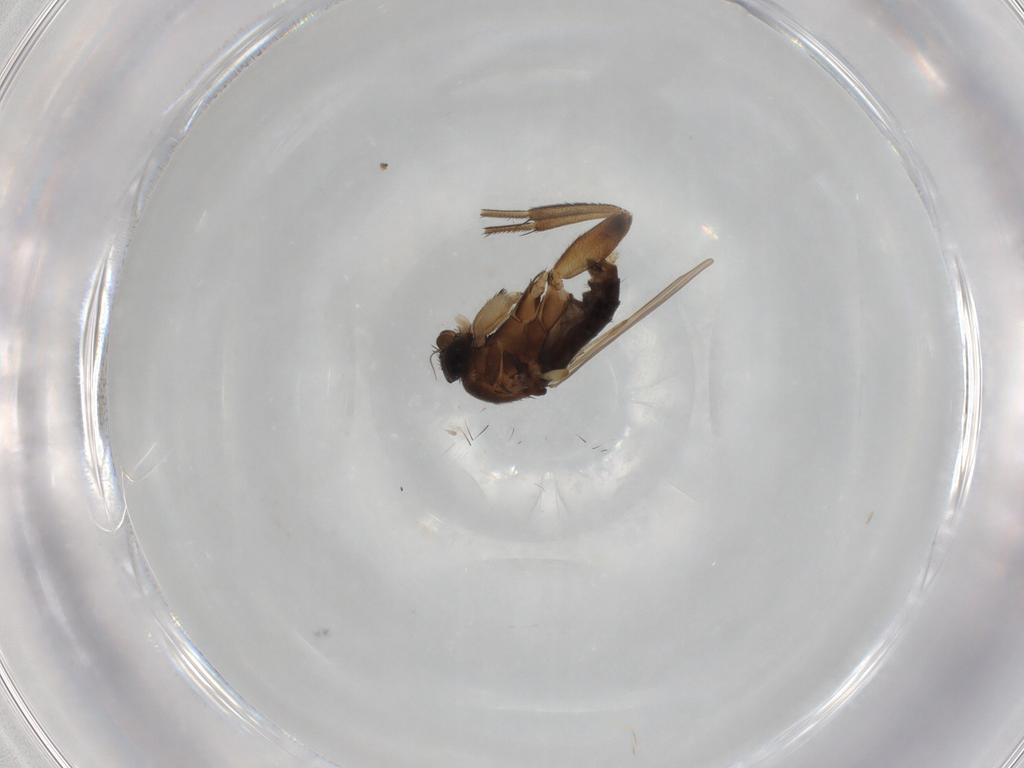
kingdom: Animalia
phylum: Arthropoda
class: Insecta
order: Diptera
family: Phoridae
